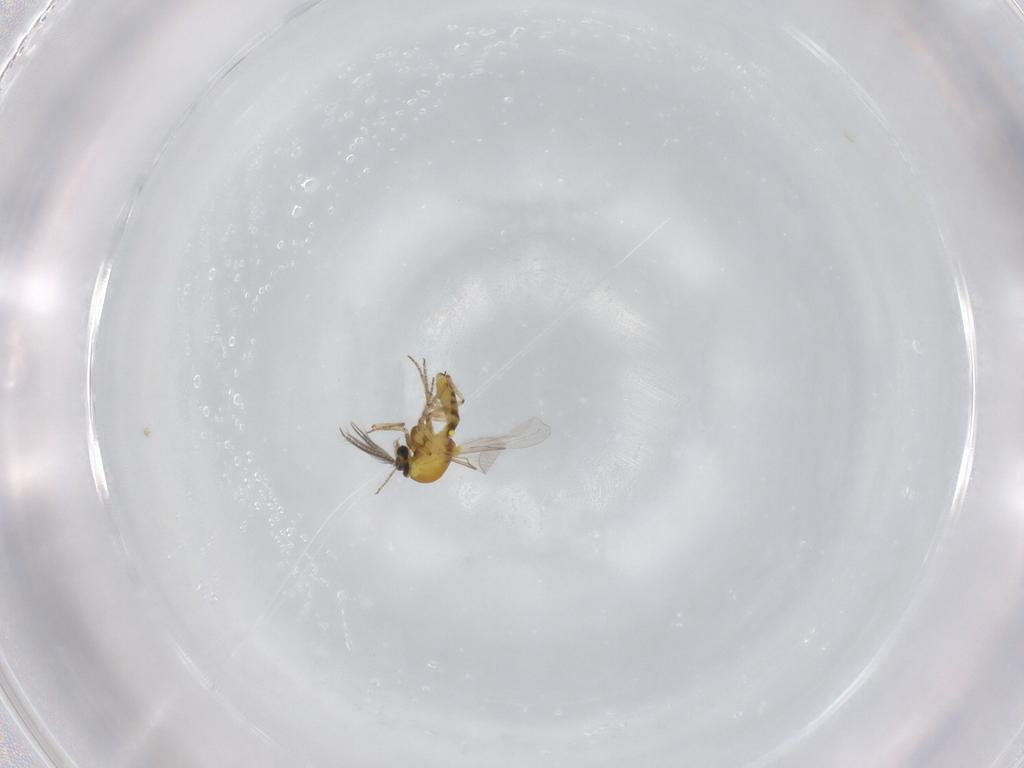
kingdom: Animalia
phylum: Arthropoda
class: Insecta
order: Diptera
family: Ceratopogonidae
